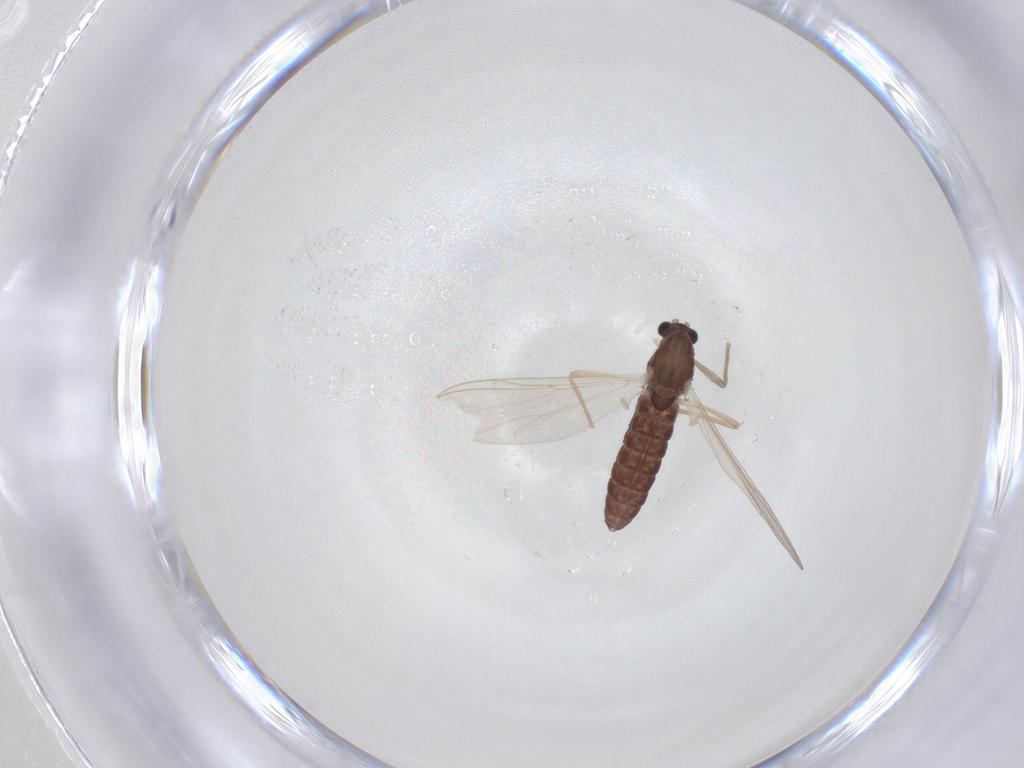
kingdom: Animalia
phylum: Arthropoda
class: Insecta
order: Diptera
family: Chironomidae
